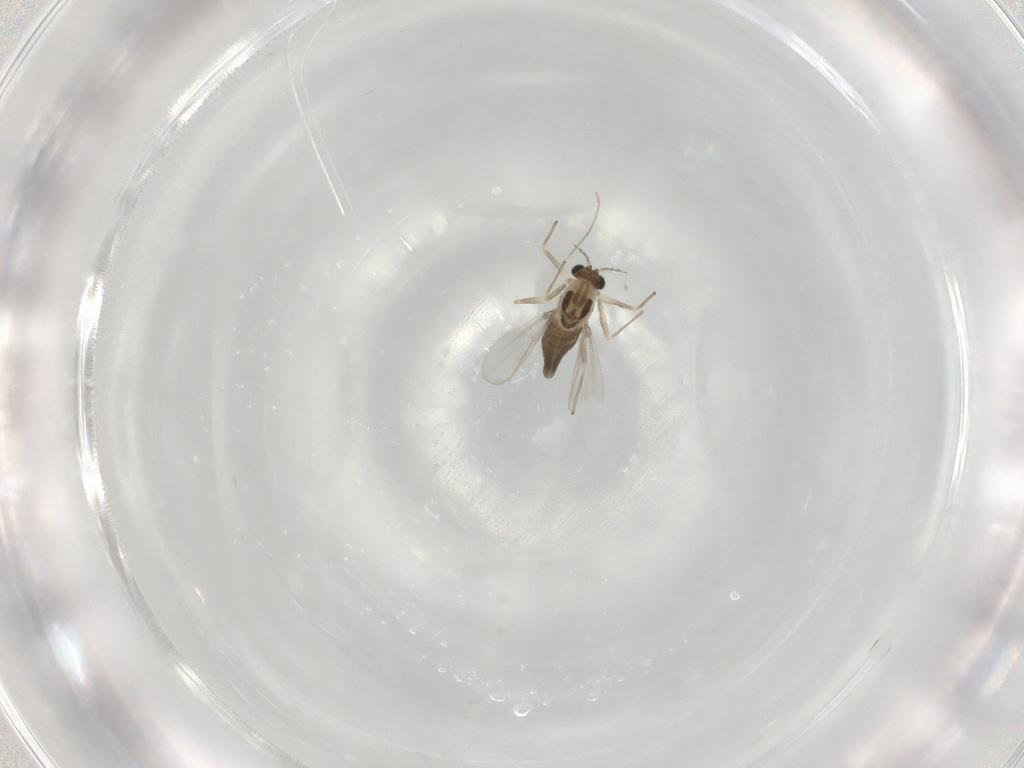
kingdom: Animalia
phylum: Arthropoda
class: Insecta
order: Diptera
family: Chironomidae
